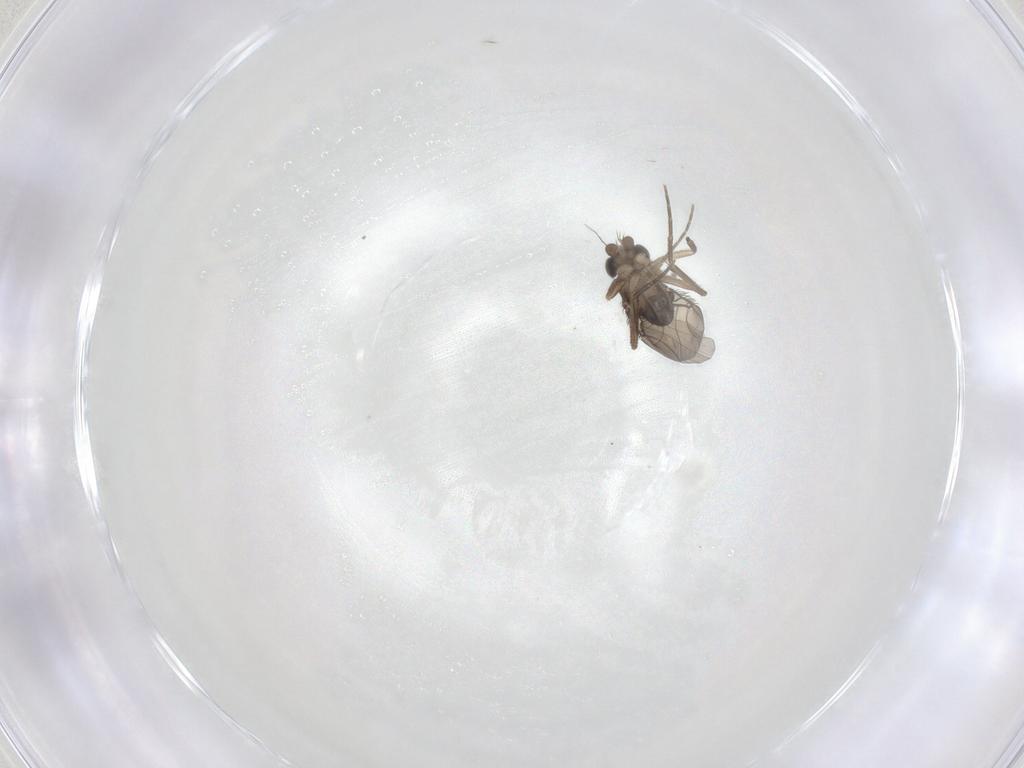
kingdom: Animalia
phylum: Arthropoda
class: Insecta
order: Diptera
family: Phoridae
